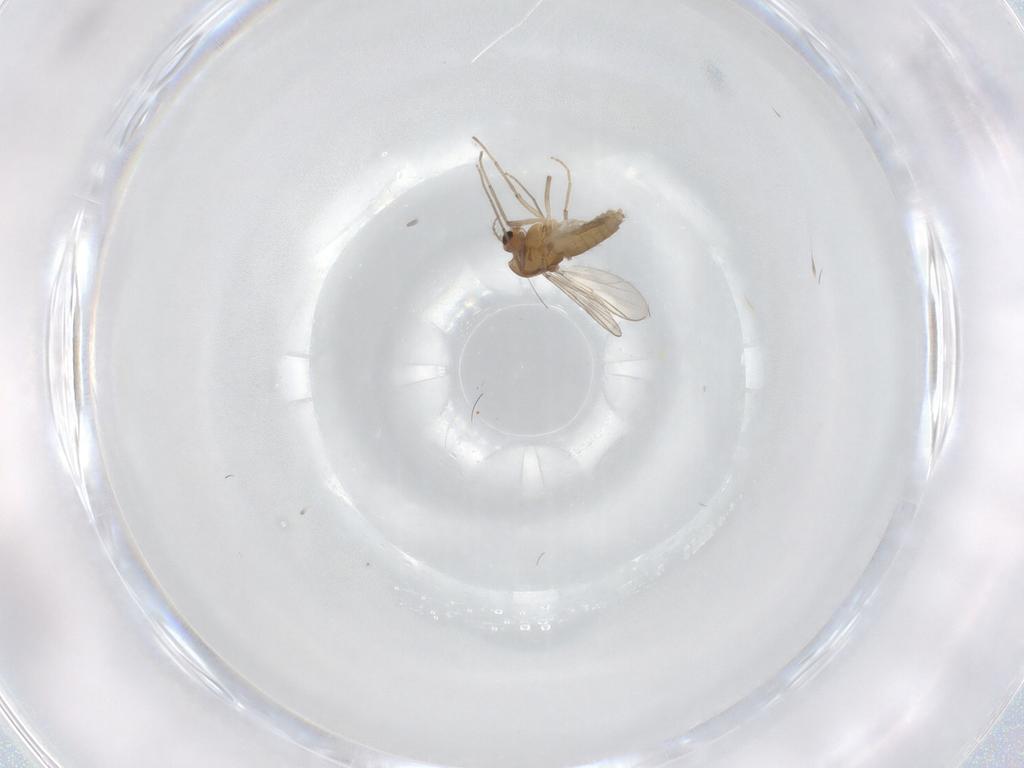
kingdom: Animalia
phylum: Arthropoda
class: Insecta
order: Diptera
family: Chironomidae
